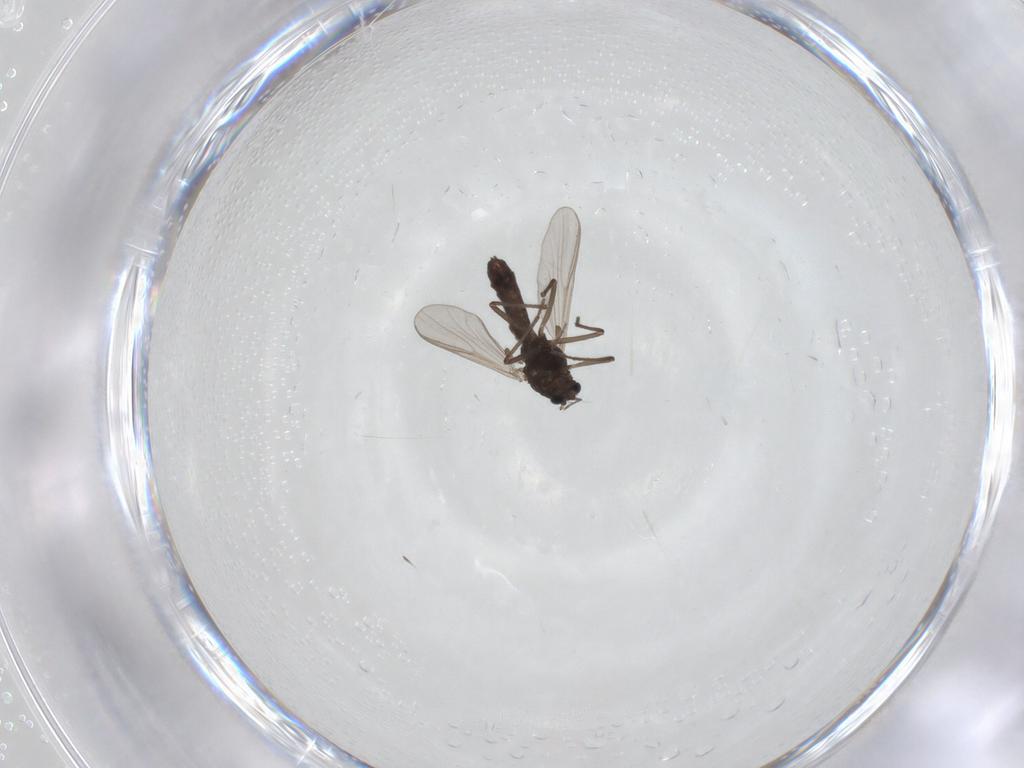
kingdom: Animalia
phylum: Arthropoda
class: Insecta
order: Diptera
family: Chironomidae
